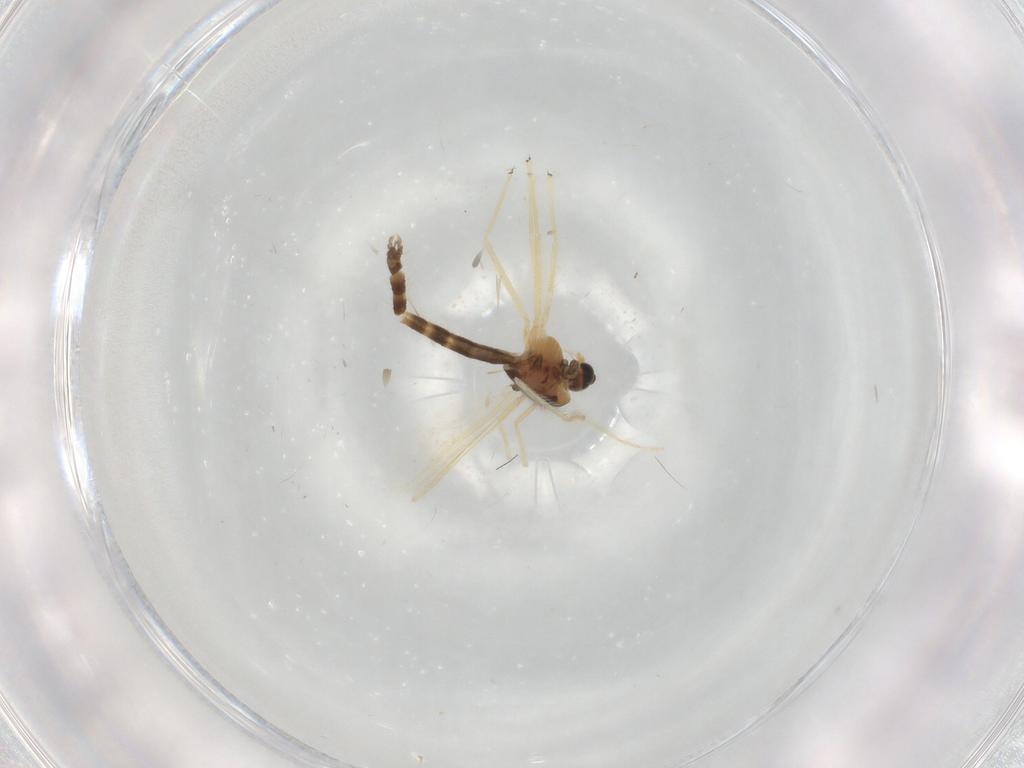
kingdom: Animalia
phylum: Arthropoda
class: Insecta
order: Diptera
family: Chironomidae
